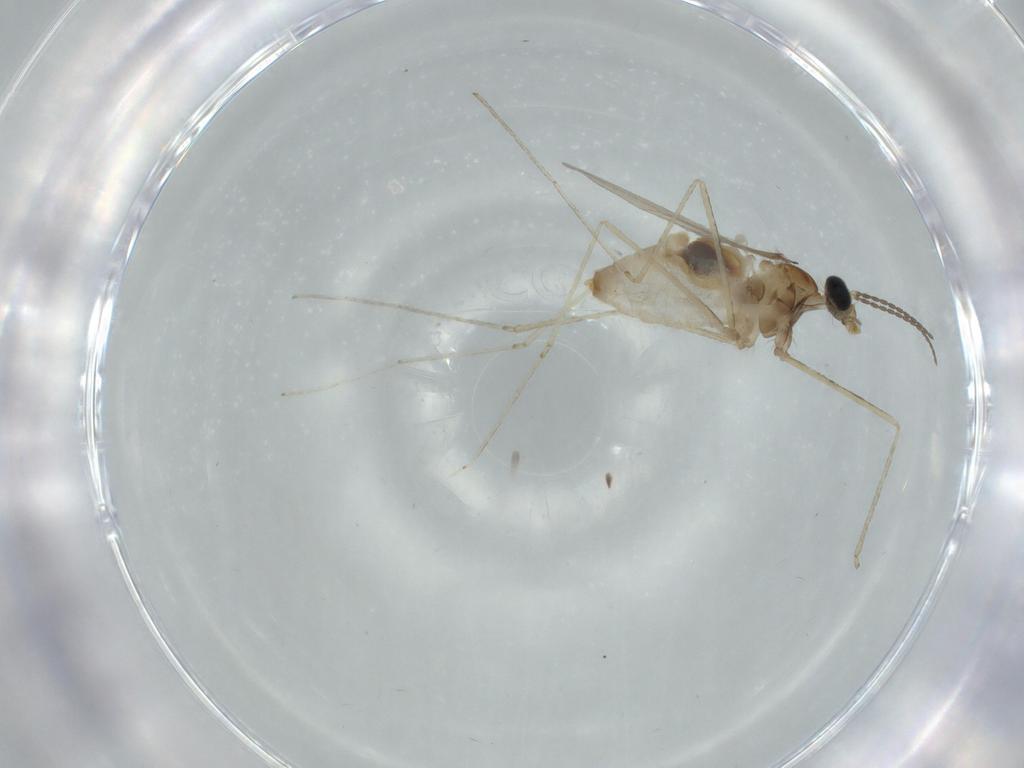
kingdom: Animalia
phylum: Arthropoda
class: Insecta
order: Diptera
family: Cecidomyiidae
